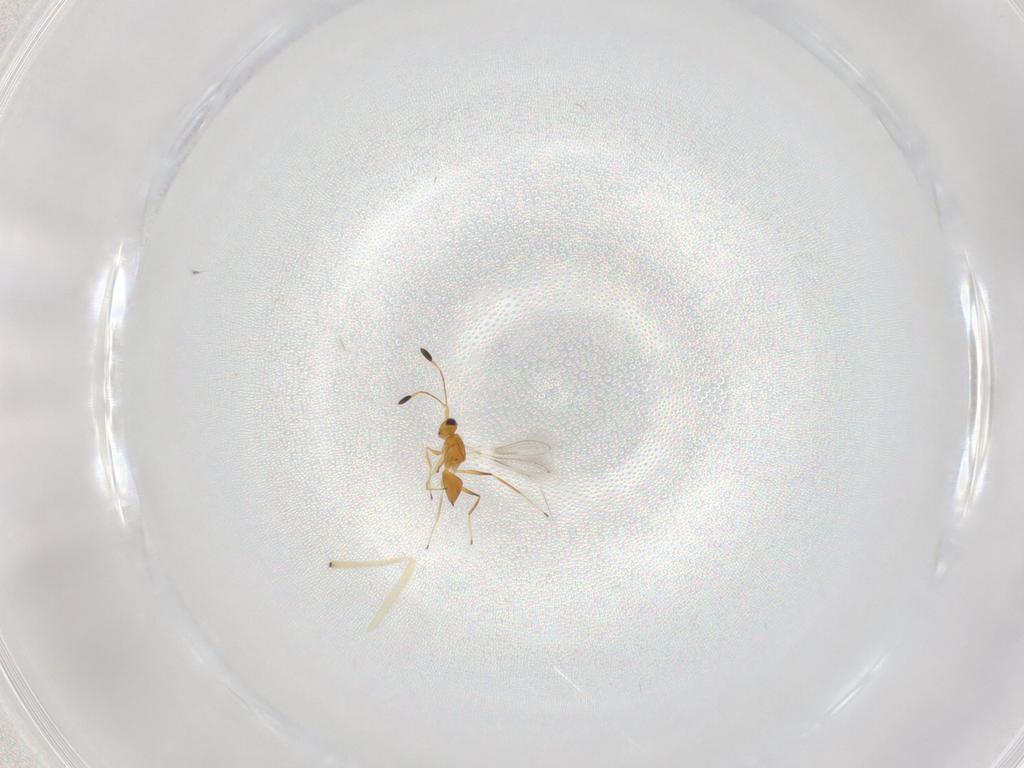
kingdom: Animalia
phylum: Arthropoda
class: Insecta
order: Hymenoptera
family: Mymaridae
